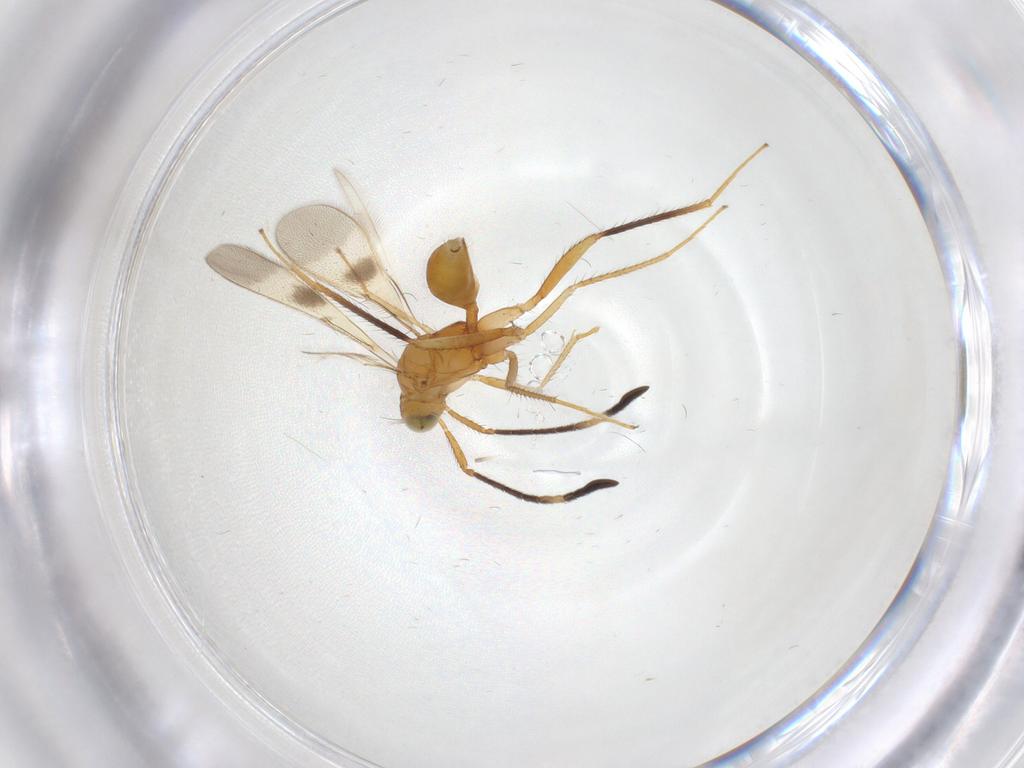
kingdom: Animalia
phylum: Arthropoda
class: Insecta
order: Hymenoptera
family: Mymaridae
